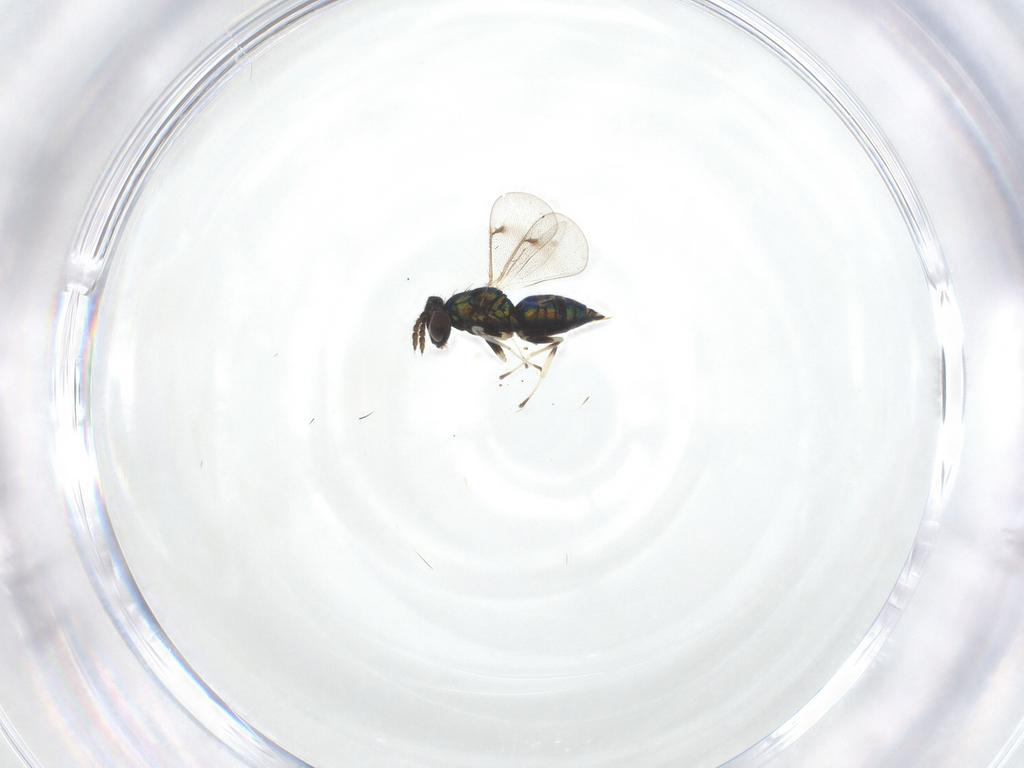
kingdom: Animalia
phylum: Arthropoda
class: Insecta
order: Hymenoptera
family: Eulophidae
